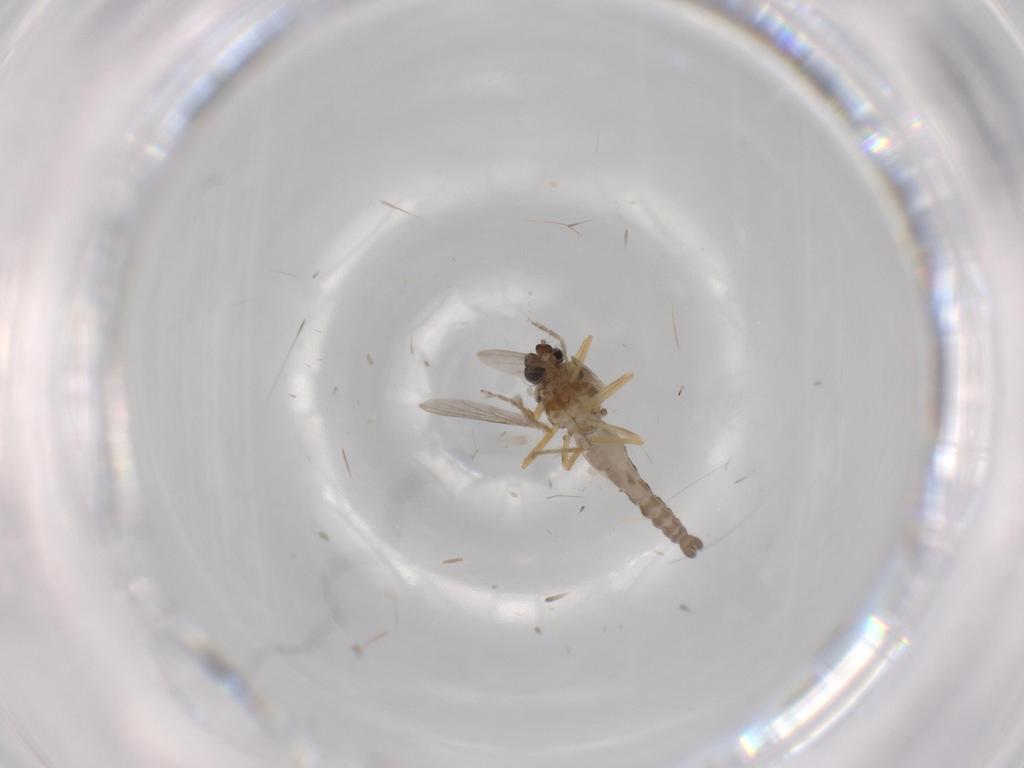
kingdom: Animalia
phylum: Arthropoda
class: Insecta
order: Diptera
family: Ceratopogonidae
